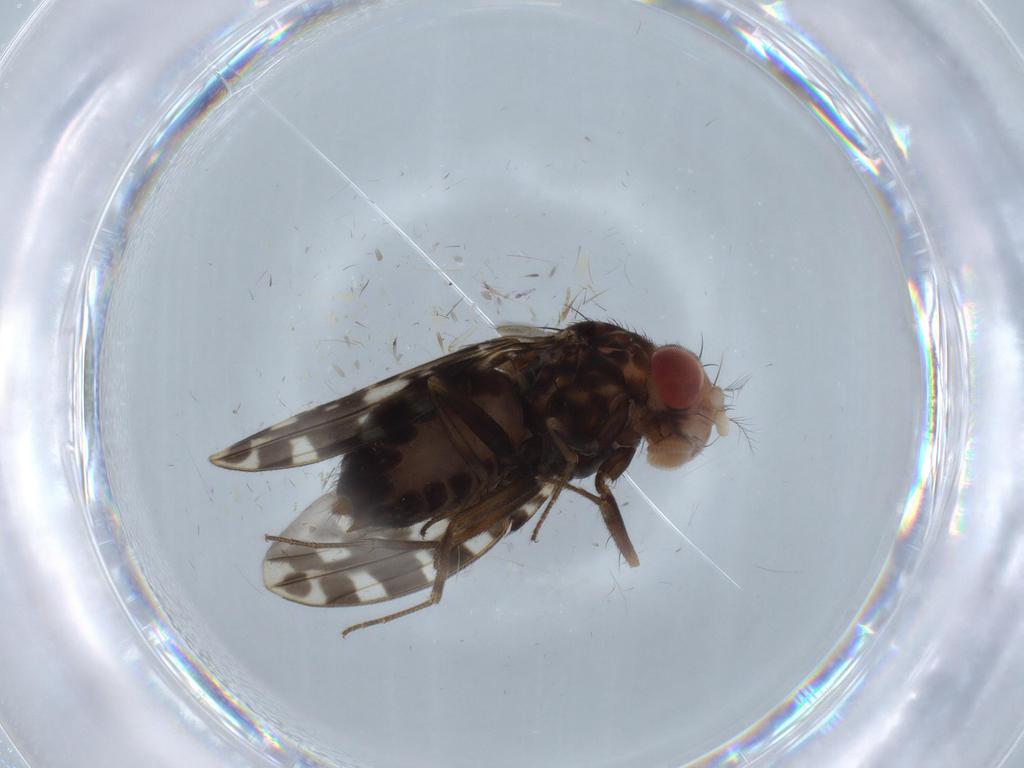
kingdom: Animalia
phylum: Arthropoda
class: Insecta
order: Diptera
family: Drosophilidae
